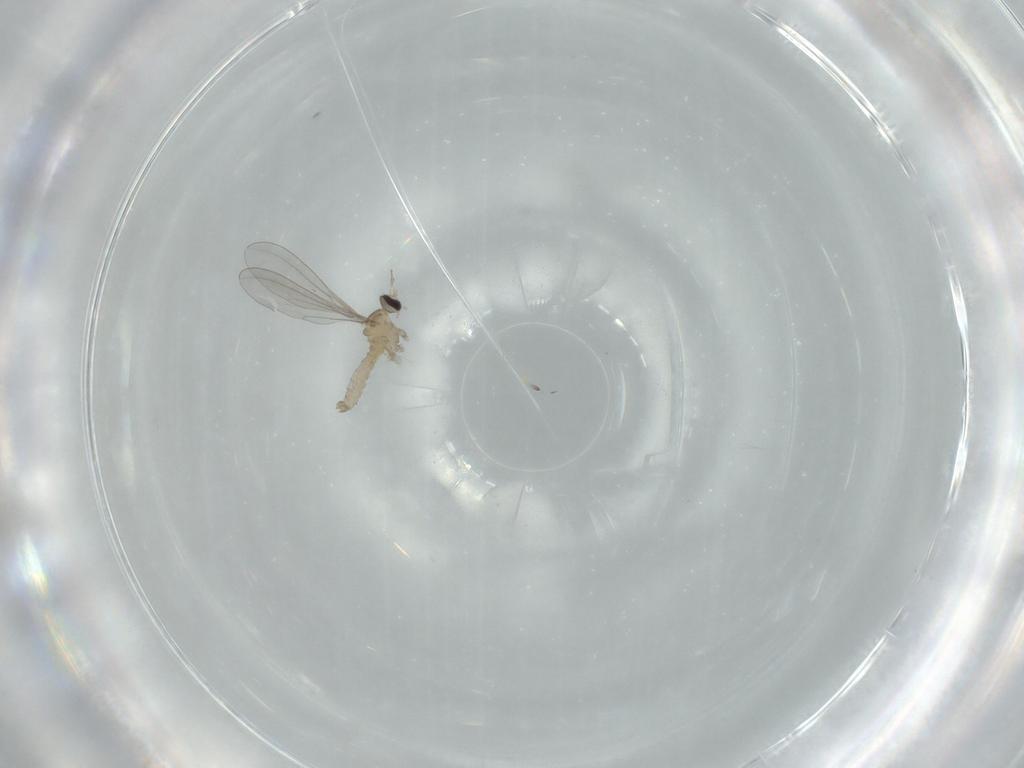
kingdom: Animalia
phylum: Arthropoda
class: Insecta
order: Diptera
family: Cecidomyiidae
